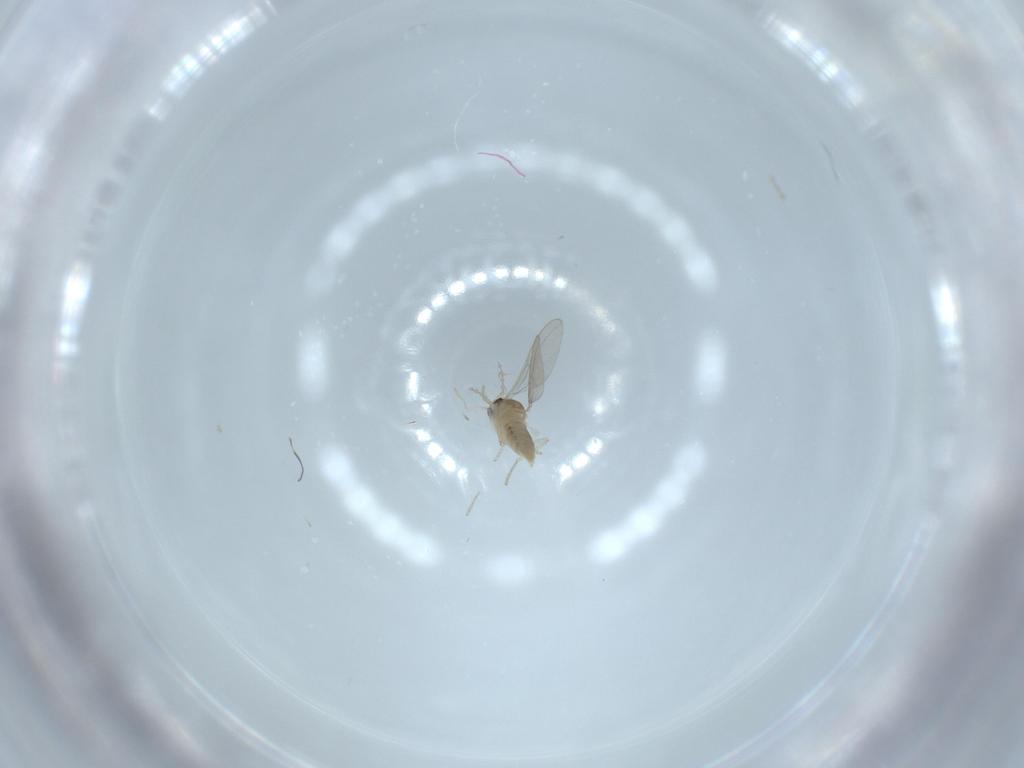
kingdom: Animalia
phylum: Arthropoda
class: Insecta
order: Diptera
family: Cecidomyiidae
